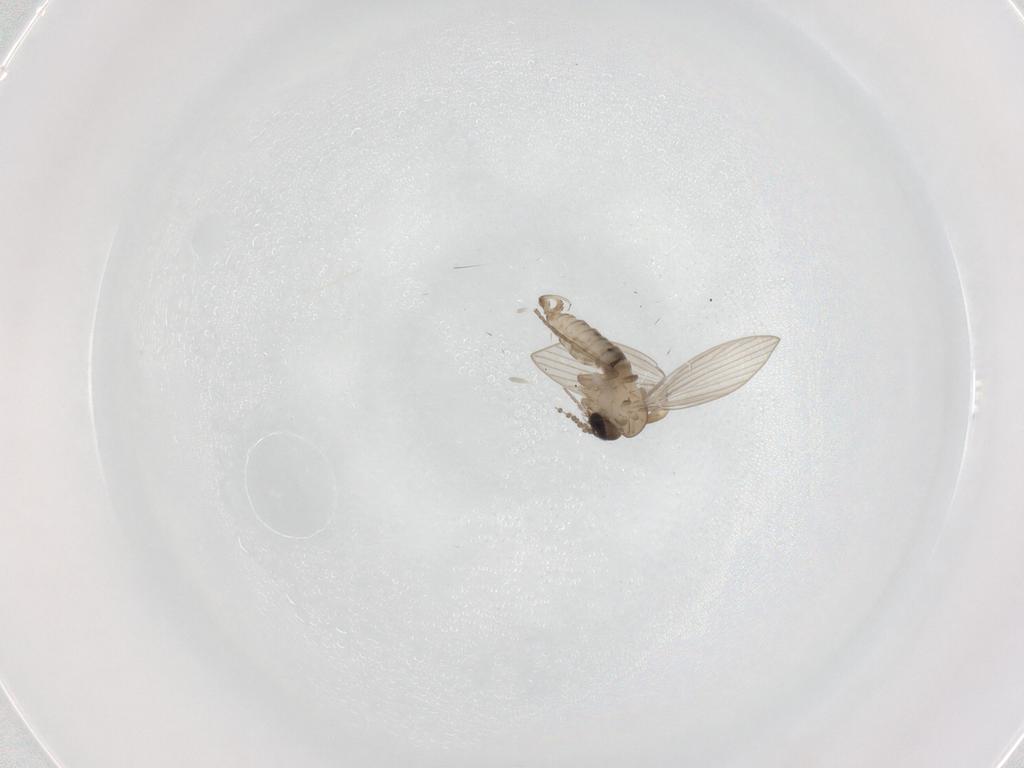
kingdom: Animalia
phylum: Arthropoda
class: Insecta
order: Diptera
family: Psychodidae
